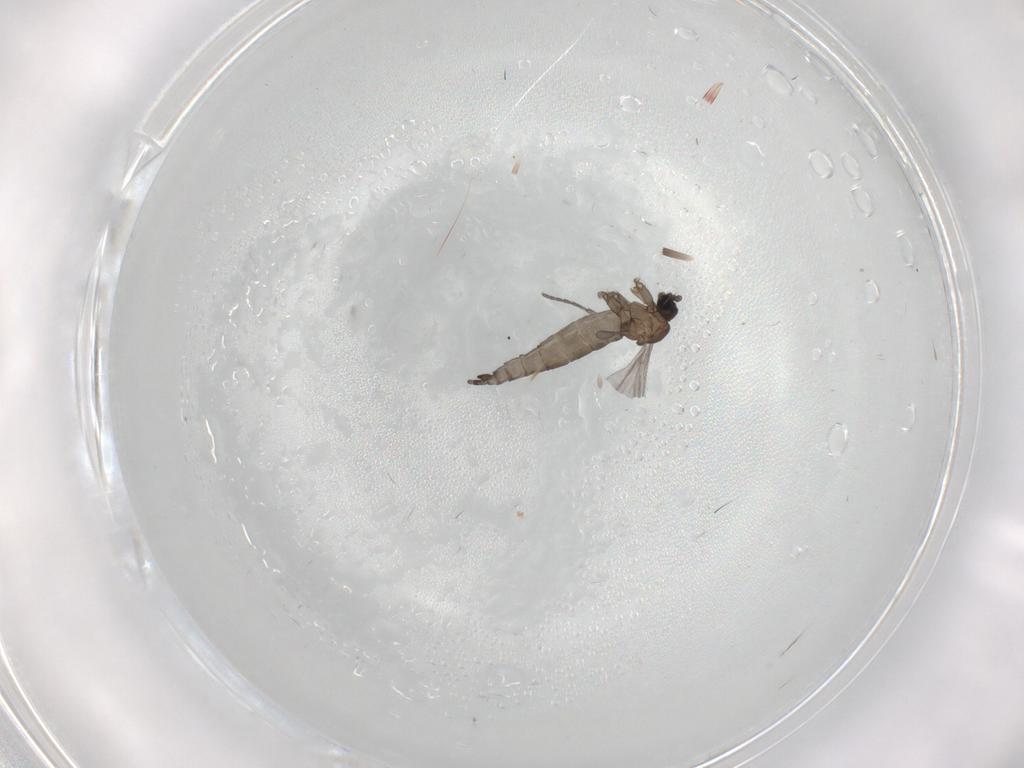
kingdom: Animalia
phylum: Arthropoda
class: Insecta
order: Diptera
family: Sciaridae
